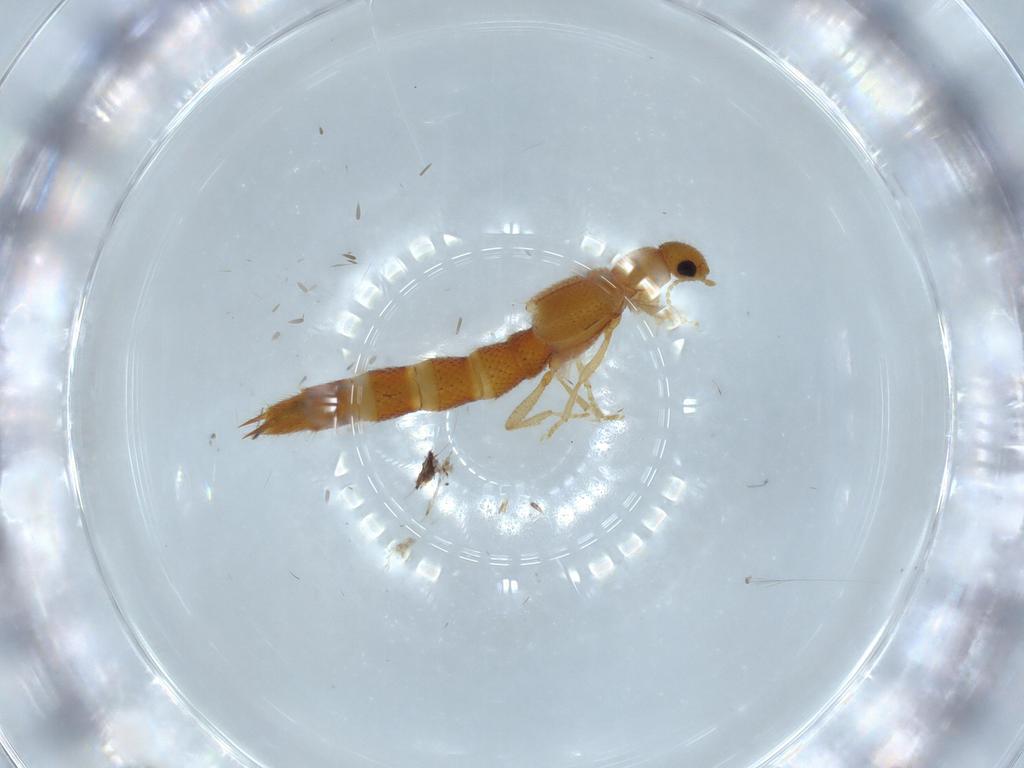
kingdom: Animalia
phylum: Arthropoda
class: Insecta
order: Coleoptera
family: Staphylinidae
